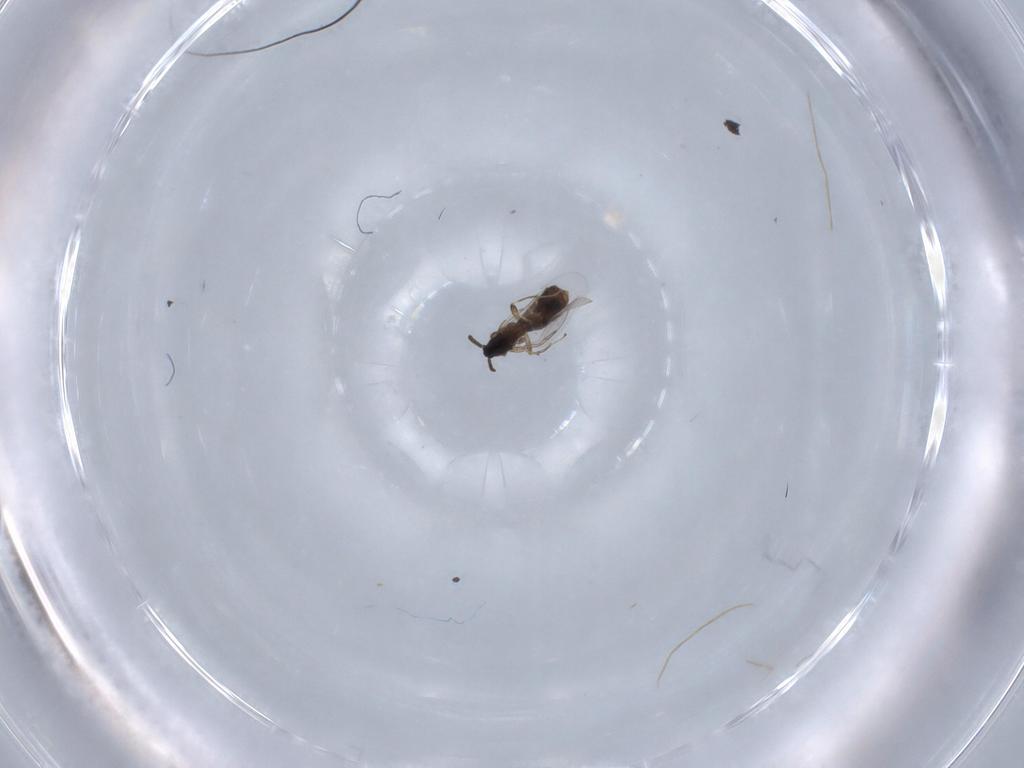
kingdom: Animalia
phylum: Arthropoda
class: Insecta
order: Diptera
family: Scatopsidae
